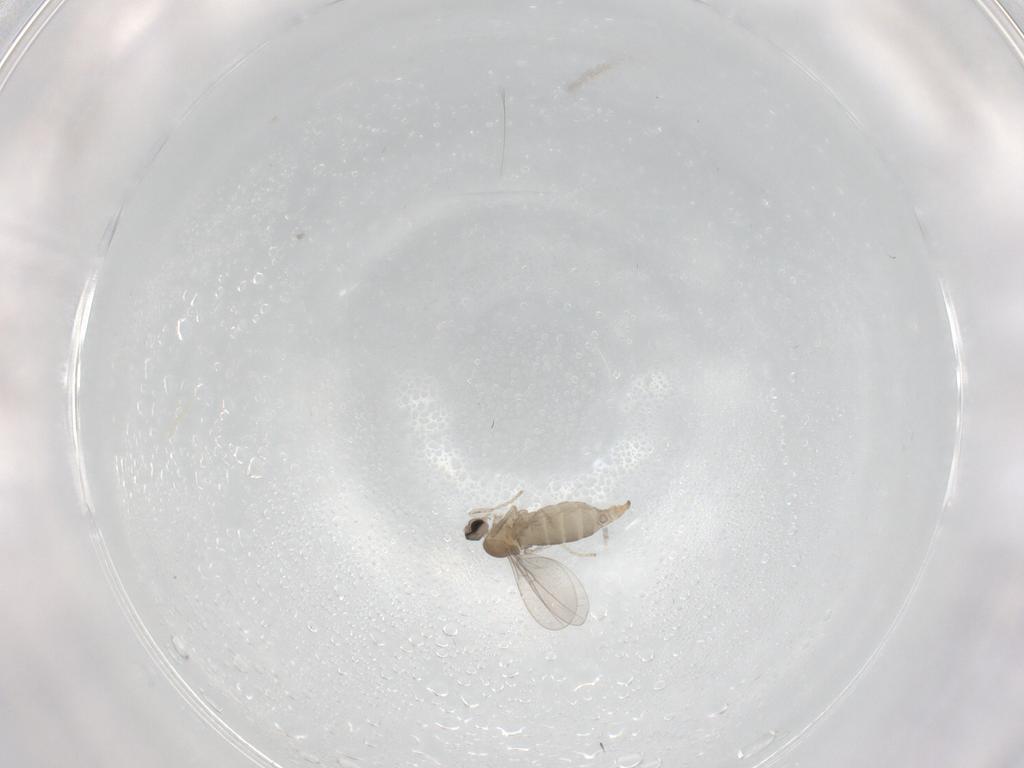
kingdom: Animalia
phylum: Arthropoda
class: Insecta
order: Diptera
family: Cecidomyiidae
